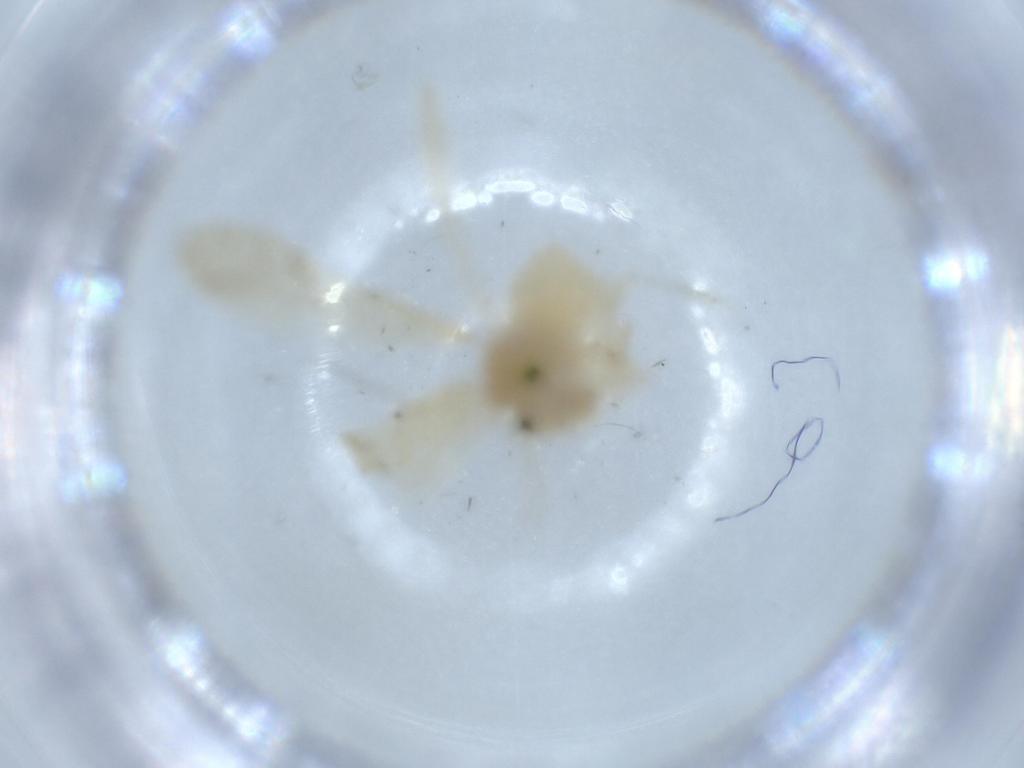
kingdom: Animalia
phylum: Arthropoda
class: Insecta
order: Psocodea
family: Caeciliusidae
